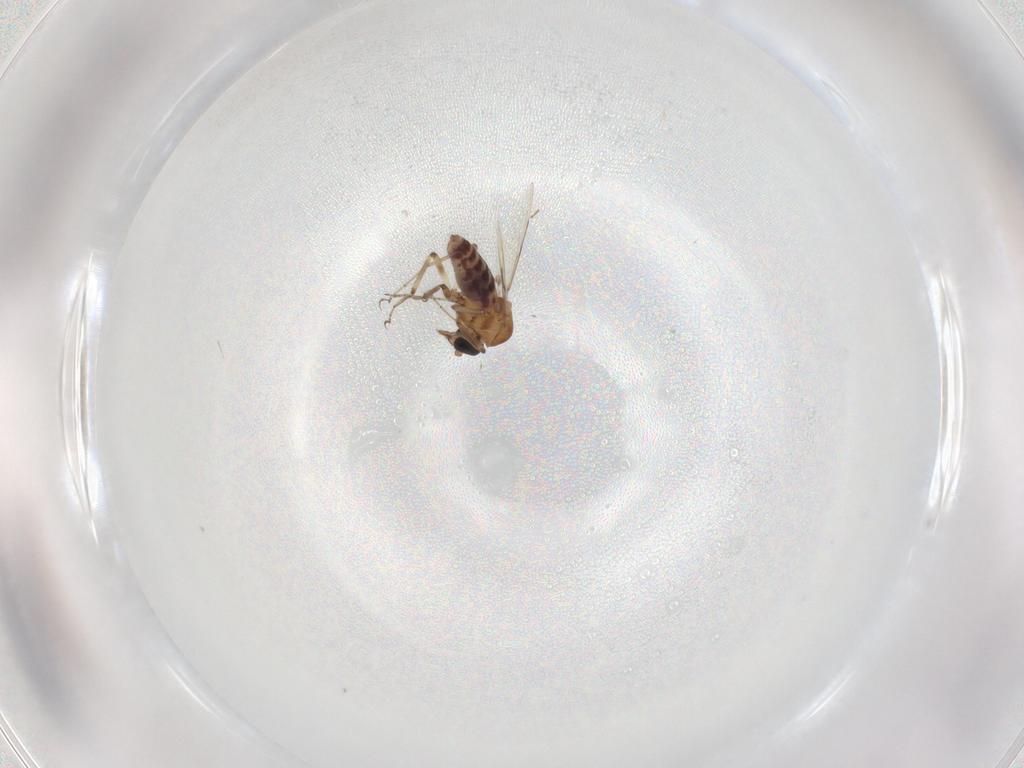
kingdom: Animalia
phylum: Arthropoda
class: Insecta
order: Diptera
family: Ceratopogonidae
